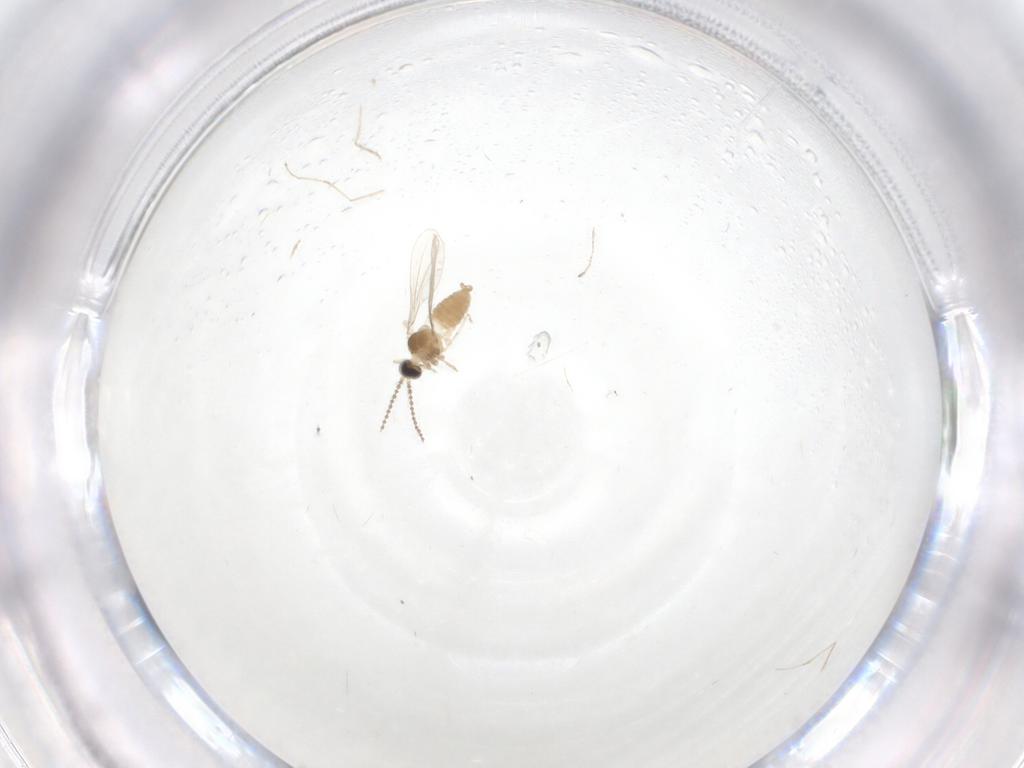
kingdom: Animalia
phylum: Arthropoda
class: Insecta
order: Diptera
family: Cecidomyiidae
